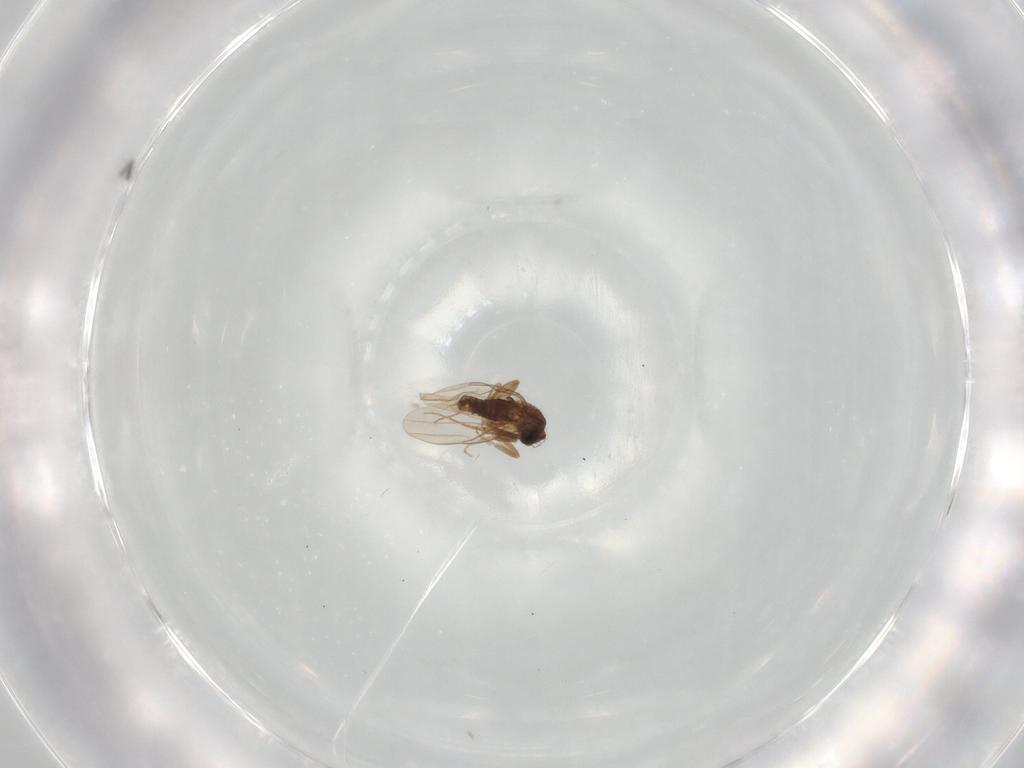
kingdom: Animalia
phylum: Arthropoda
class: Insecta
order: Diptera
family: Phoridae
